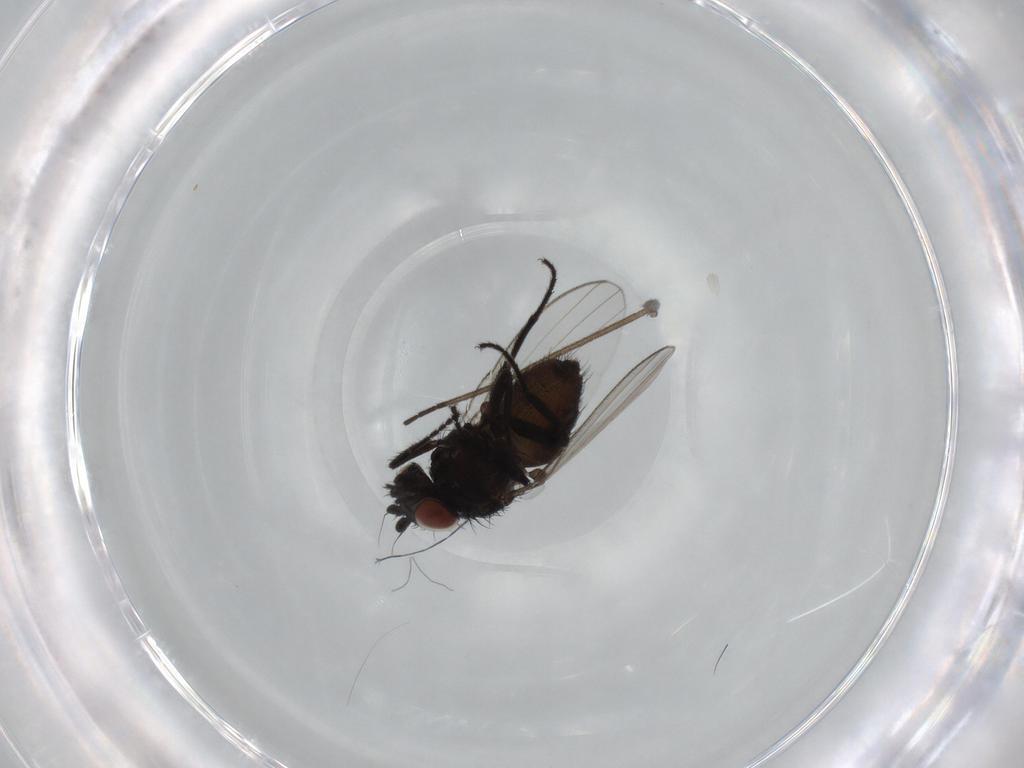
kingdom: Animalia
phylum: Arthropoda
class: Insecta
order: Diptera
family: Milichiidae
